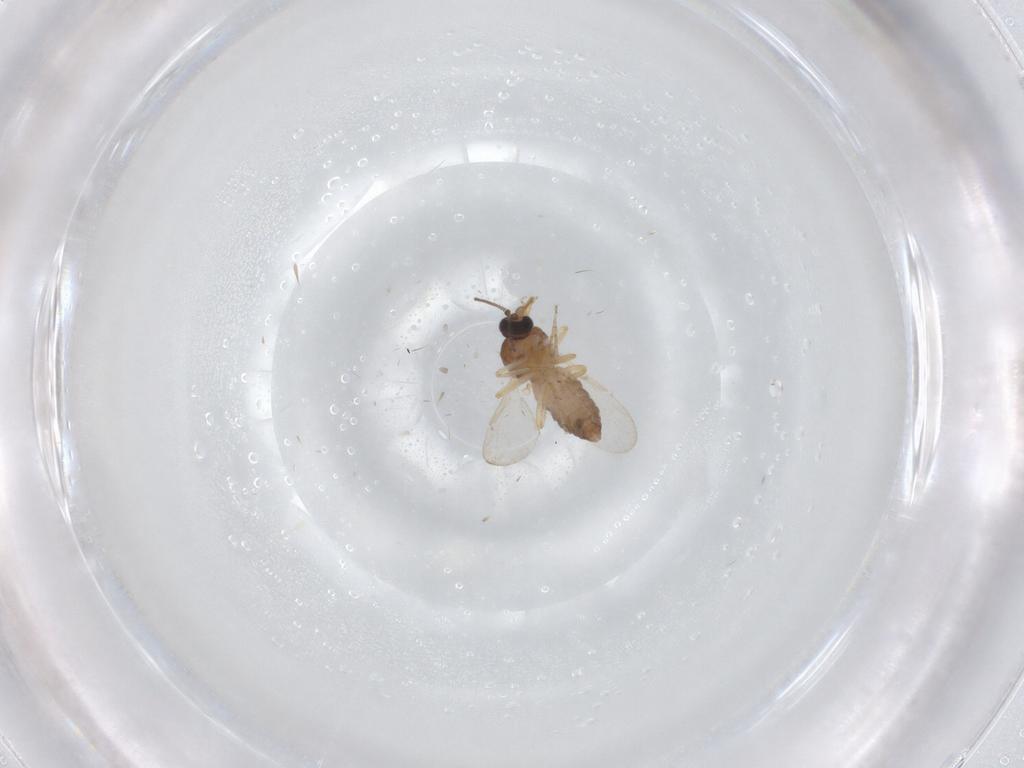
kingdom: Animalia
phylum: Arthropoda
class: Insecta
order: Diptera
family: Ceratopogonidae
